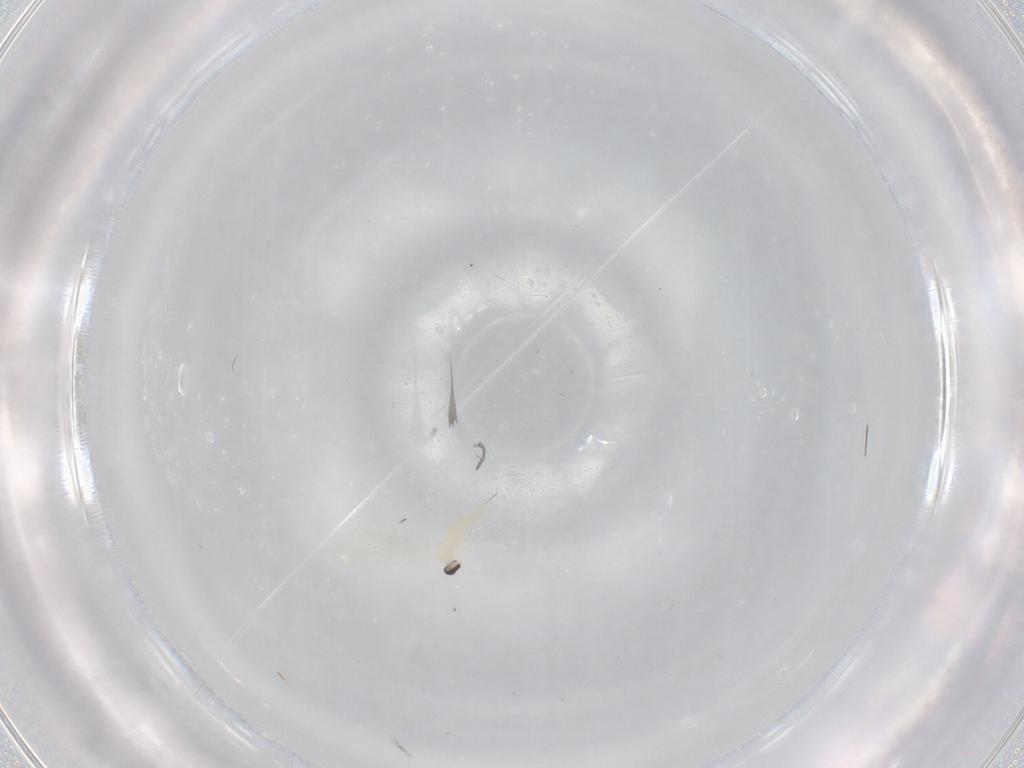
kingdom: Animalia
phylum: Arthropoda
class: Insecta
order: Diptera
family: Cecidomyiidae
